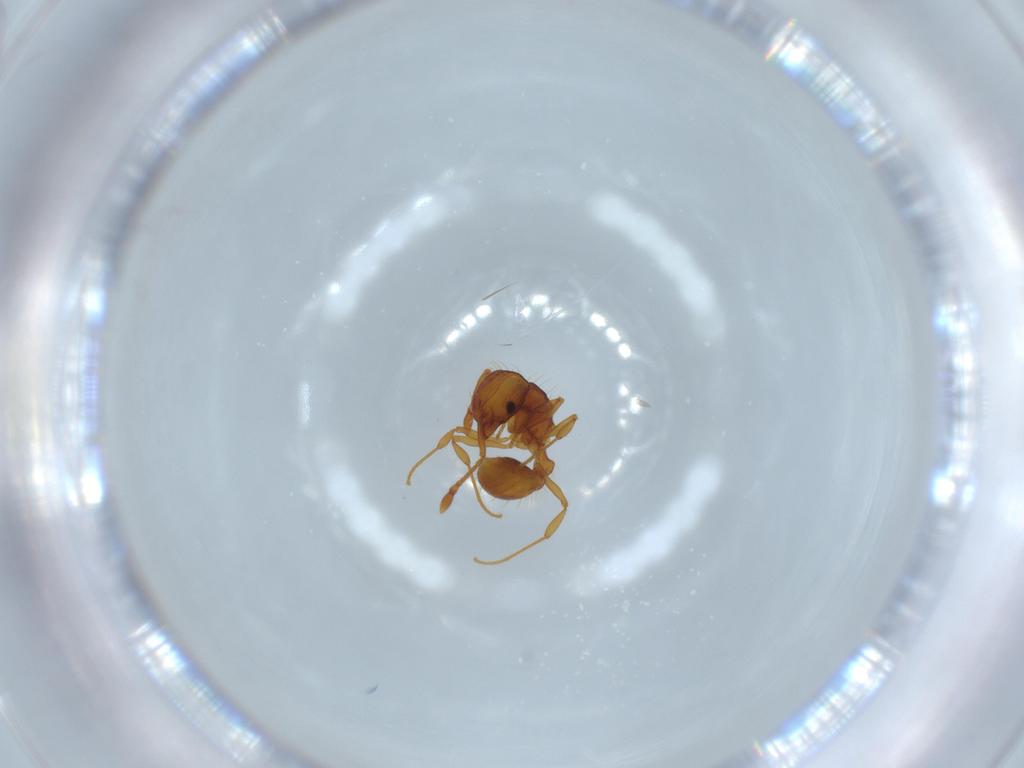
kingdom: Animalia
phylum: Arthropoda
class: Insecta
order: Hymenoptera
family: Formicidae
